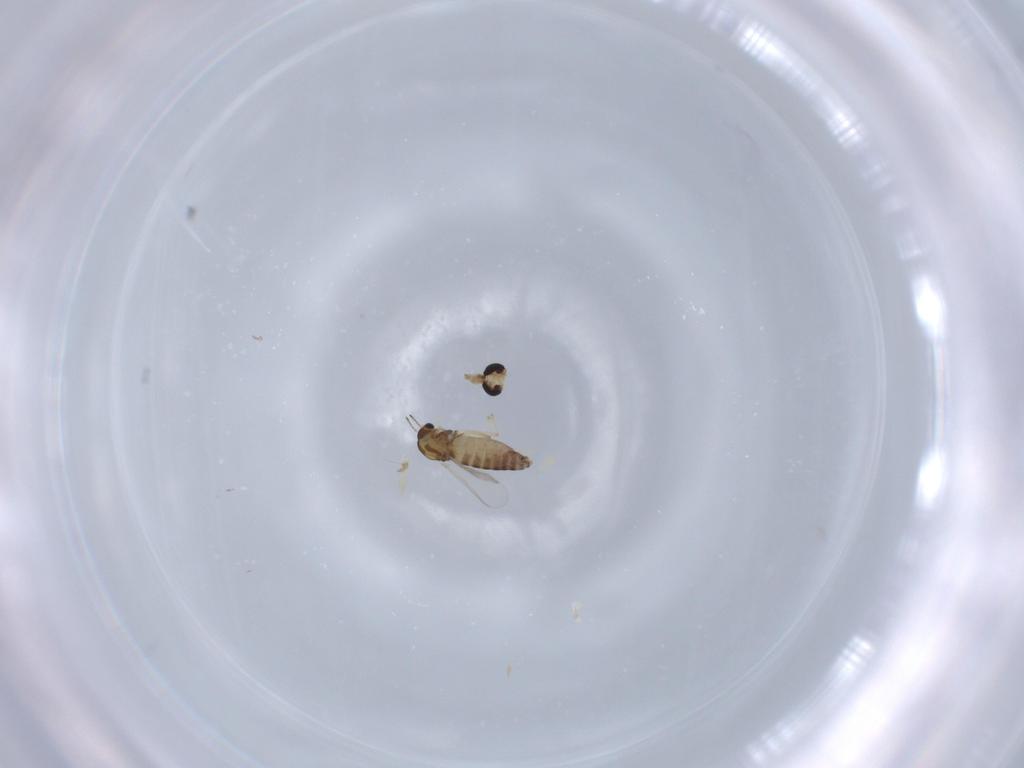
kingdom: Animalia
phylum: Arthropoda
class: Insecta
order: Diptera
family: Chironomidae
